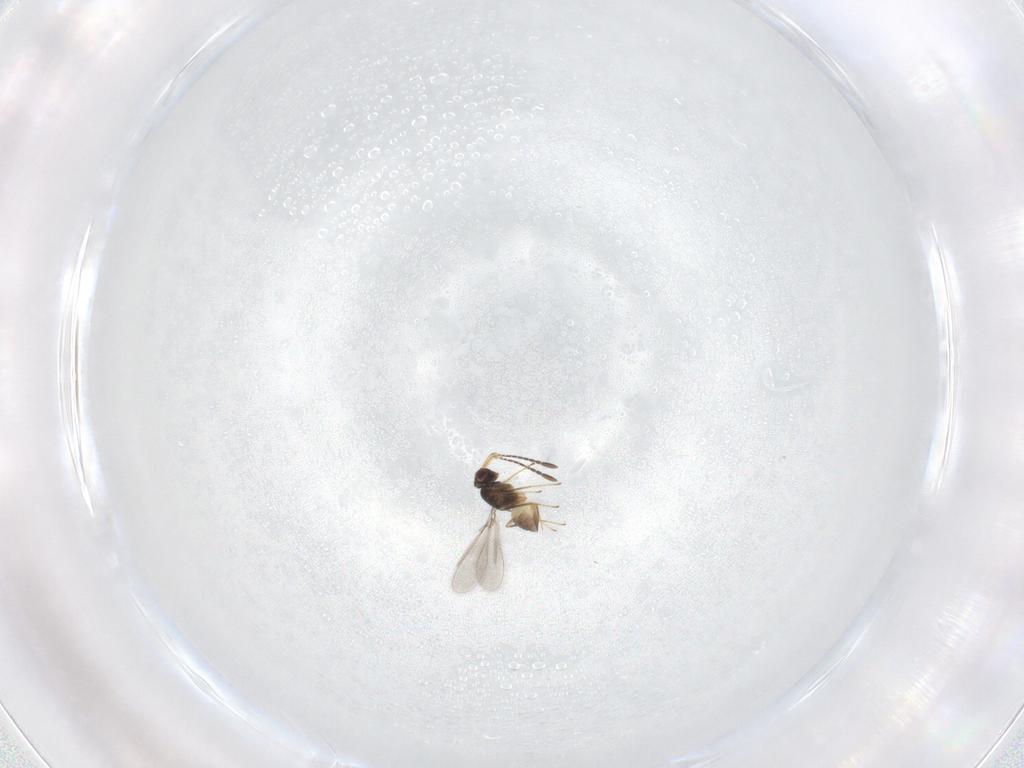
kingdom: Animalia
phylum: Arthropoda
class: Insecta
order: Hymenoptera
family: Mymaridae
